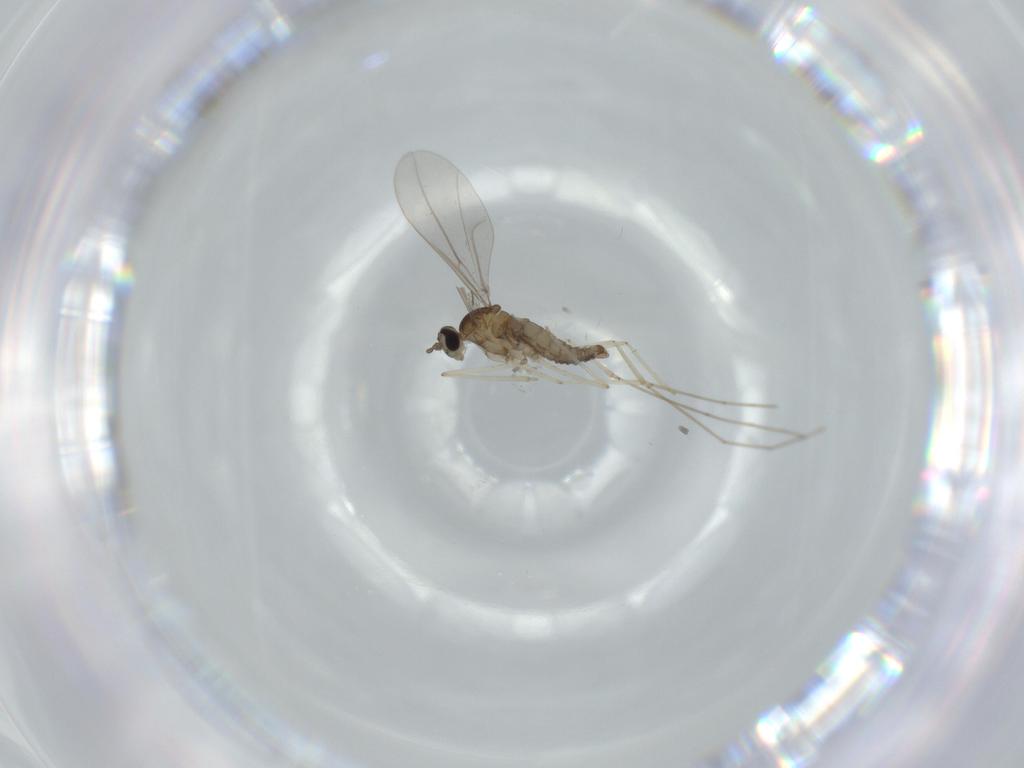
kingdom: Animalia
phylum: Arthropoda
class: Insecta
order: Diptera
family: Cecidomyiidae
